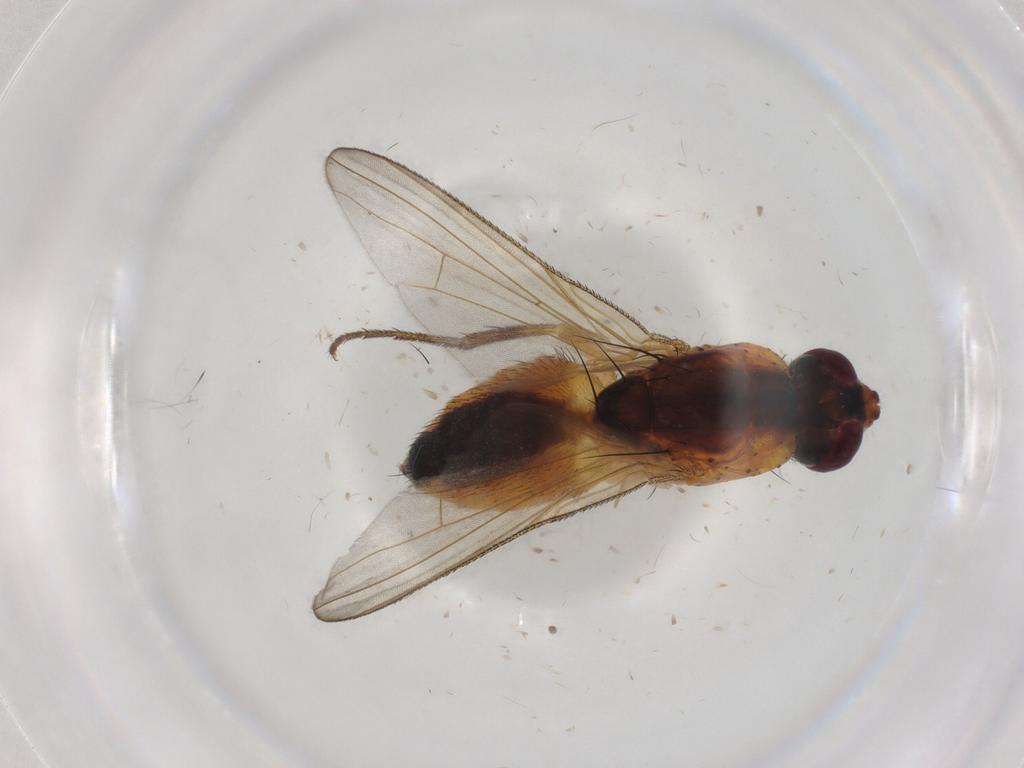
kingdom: Animalia
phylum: Arthropoda
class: Insecta
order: Diptera
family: Muscidae
